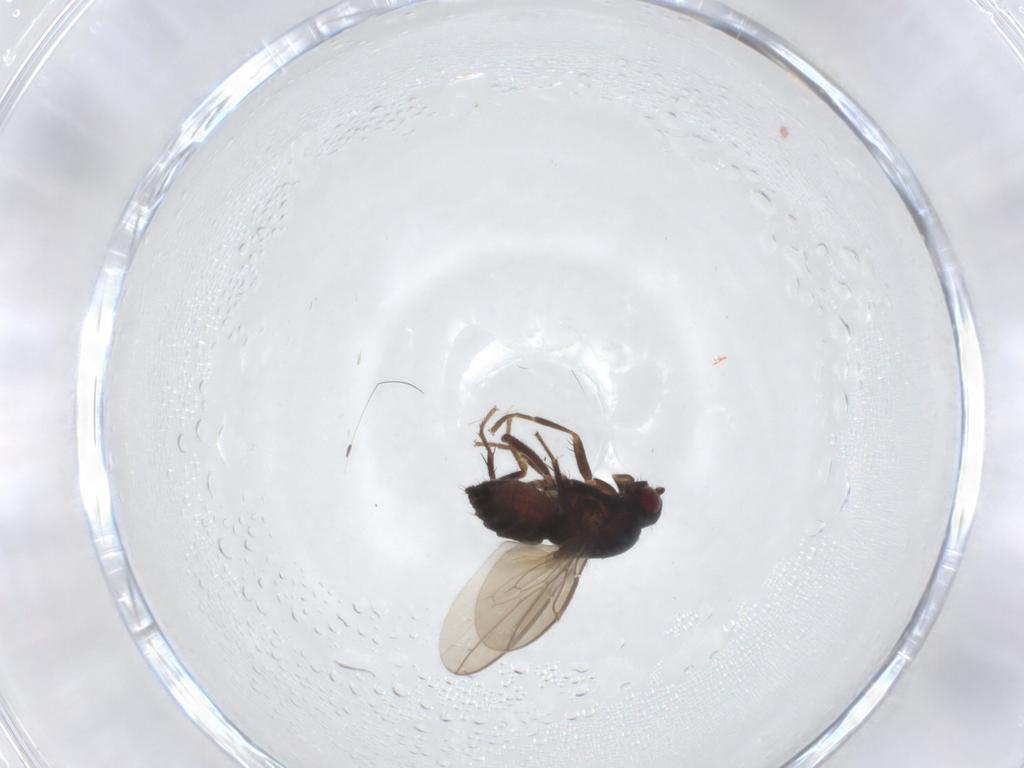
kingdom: Animalia
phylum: Arthropoda
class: Insecta
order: Diptera
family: Sphaeroceridae
